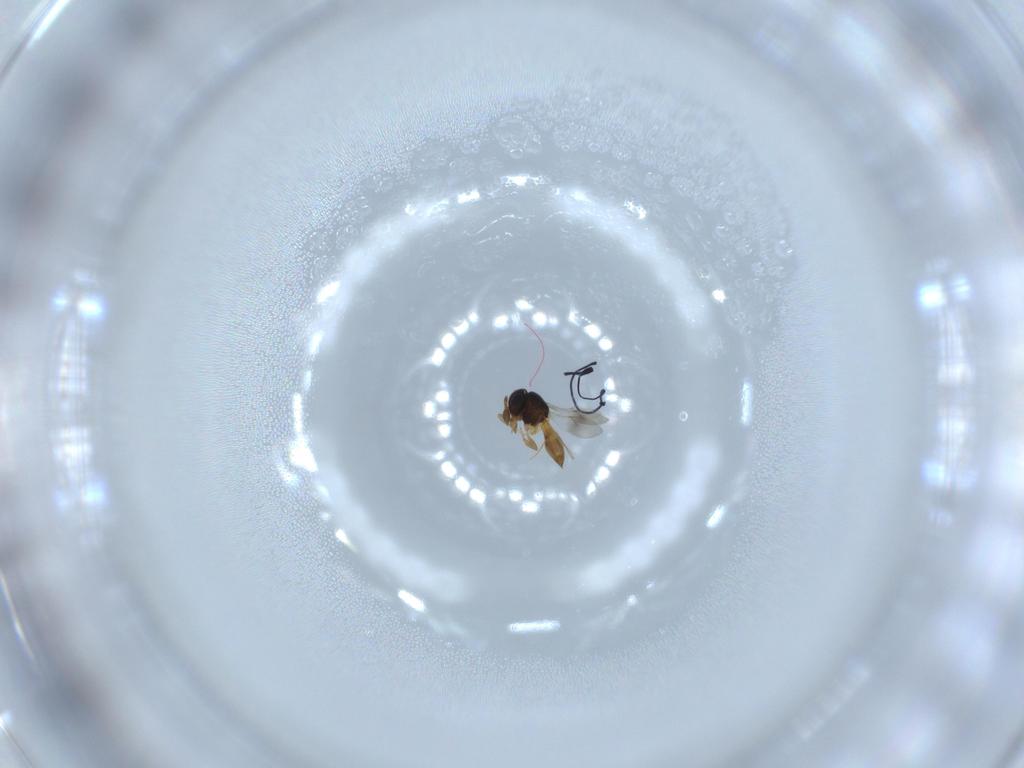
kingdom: Animalia
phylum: Arthropoda
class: Insecta
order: Hymenoptera
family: Scelionidae
